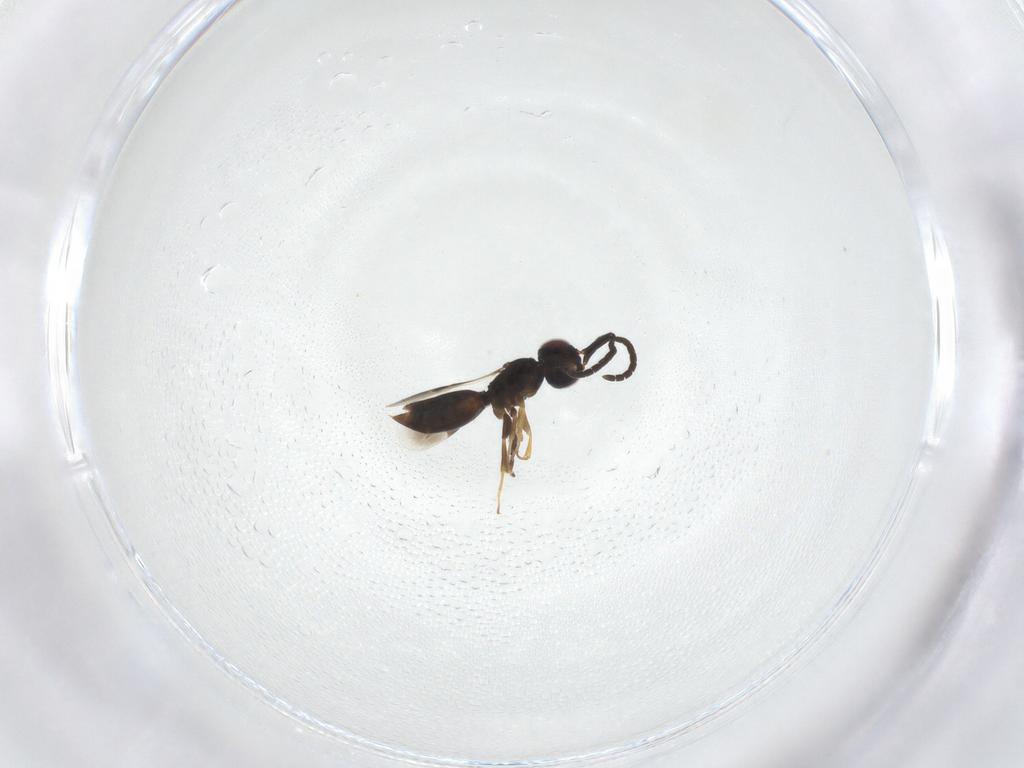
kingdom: Animalia
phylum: Arthropoda
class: Insecta
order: Hymenoptera
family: Megaspilidae
